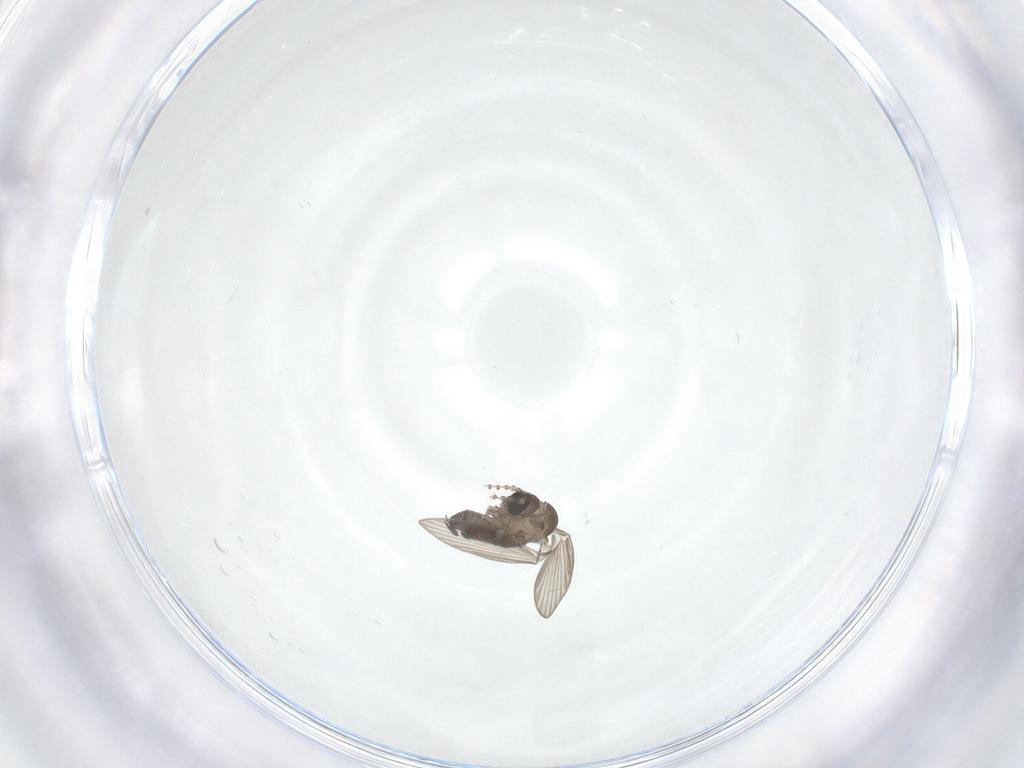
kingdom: Animalia
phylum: Arthropoda
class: Insecta
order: Diptera
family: Psychodidae
